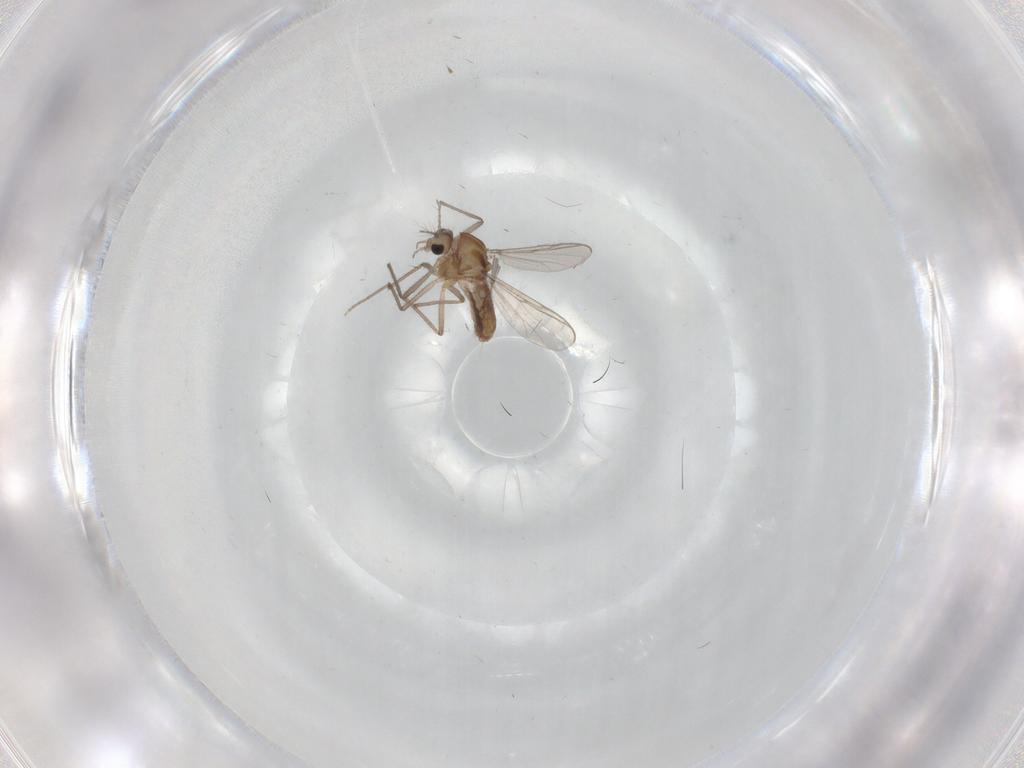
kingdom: Animalia
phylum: Arthropoda
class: Insecta
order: Diptera
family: Chironomidae
